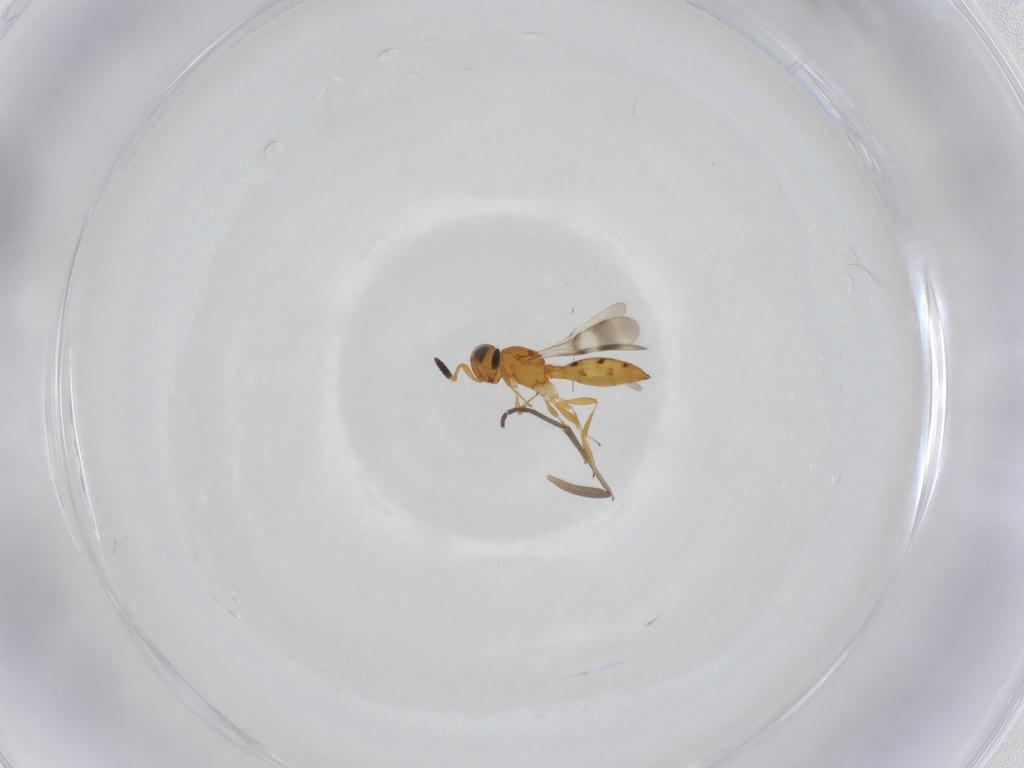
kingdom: Animalia
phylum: Arthropoda
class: Insecta
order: Hymenoptera
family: Scelionidae
